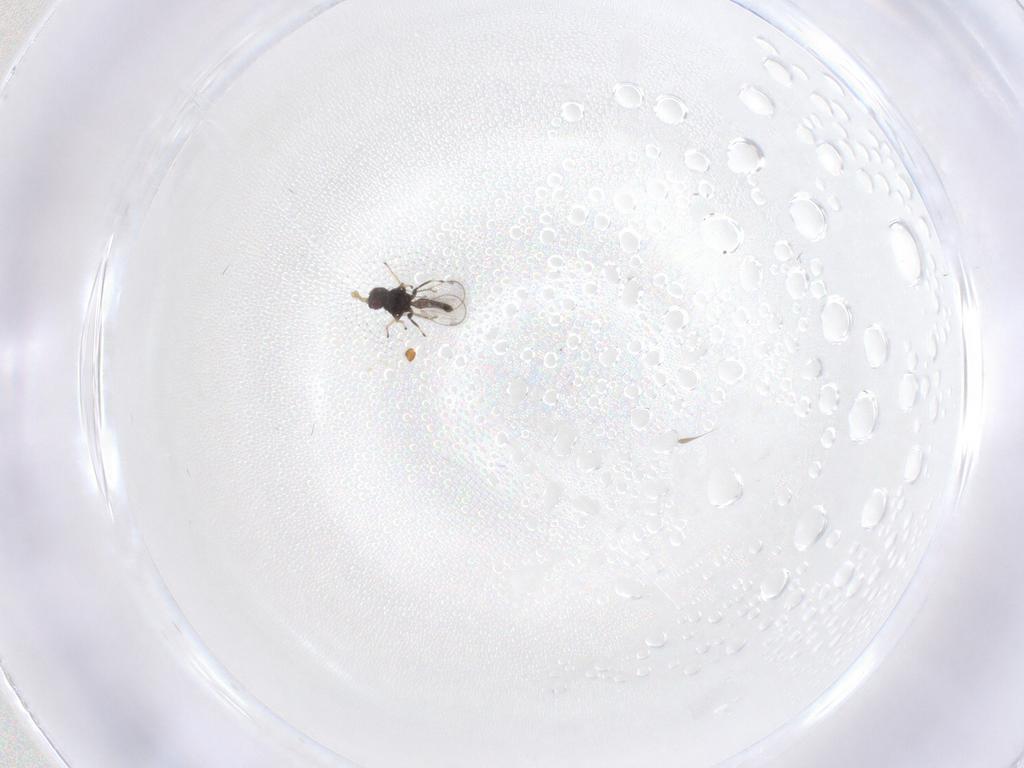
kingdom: Animalia
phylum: Arthropoda
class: Insecta
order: Hymenoptera
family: Eulophidae
